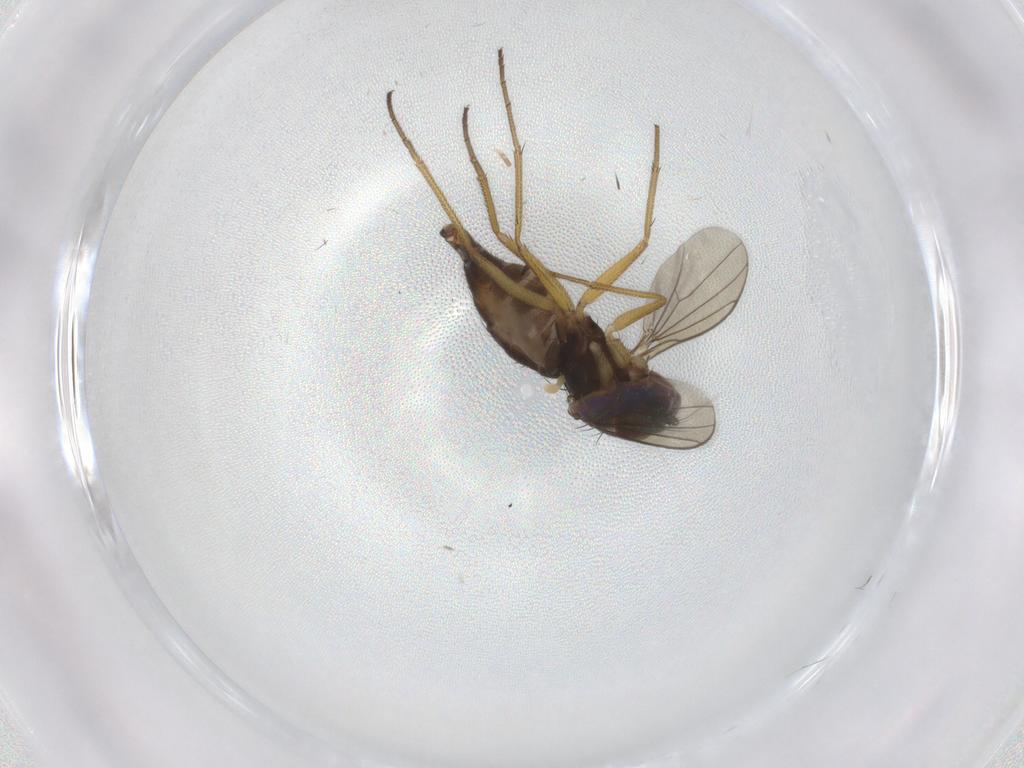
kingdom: Animalia
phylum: Arthropoda
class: Insecta
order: Diptera
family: Dolichopodidae
